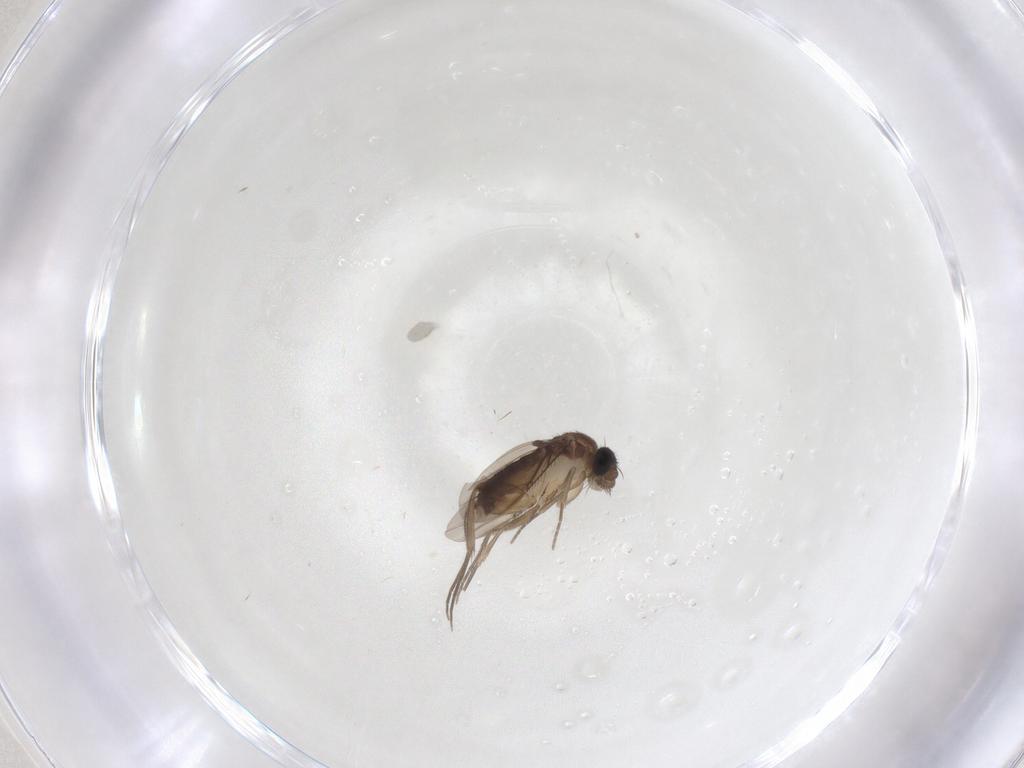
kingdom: Animalia
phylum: Arthropoda
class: Insecta
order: Diptera
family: Phoridae
